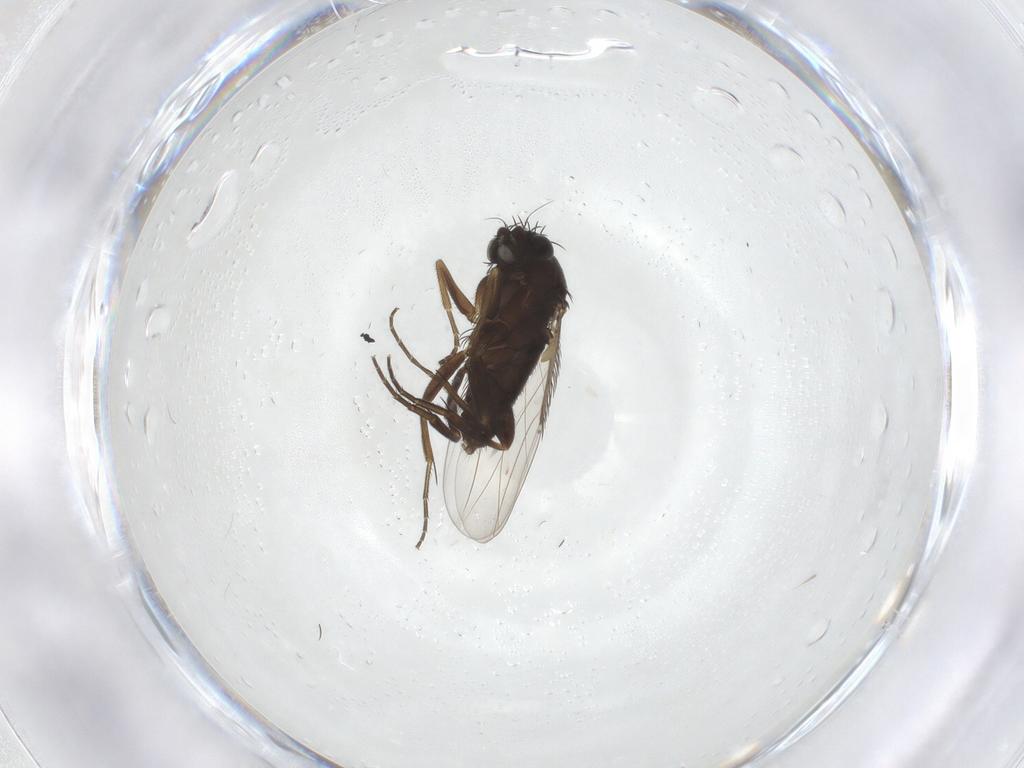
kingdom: Animalia
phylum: Arthropoda
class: Insecta
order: Diptera
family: Phoridae
